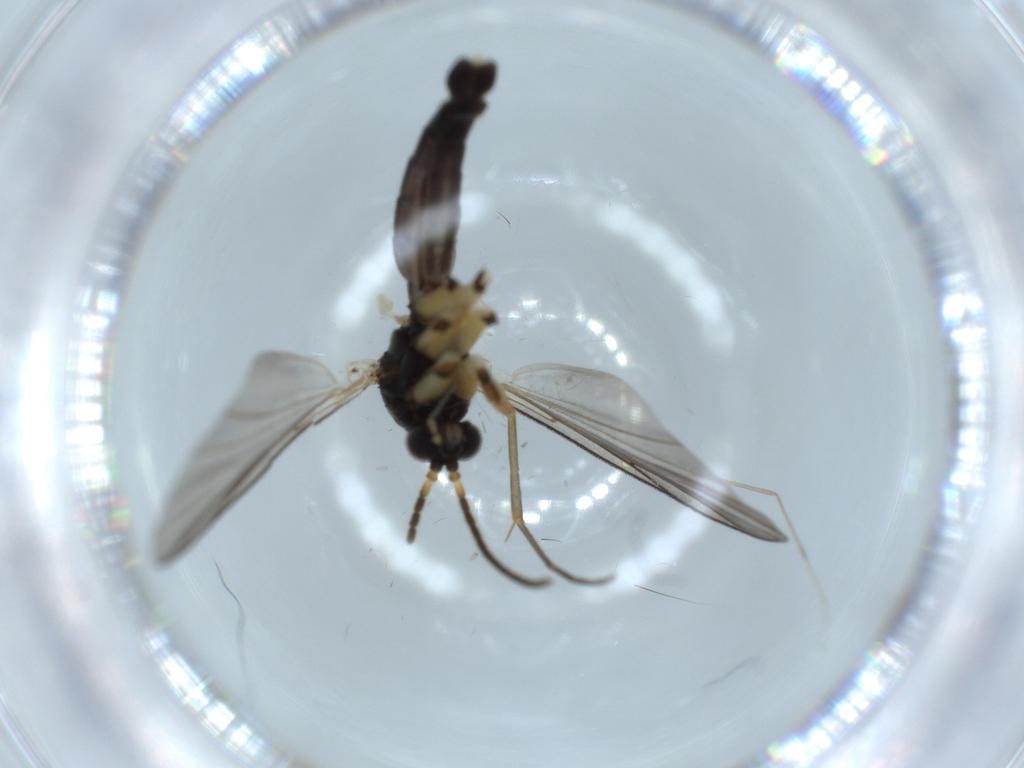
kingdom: Animalia
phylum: Arthropoda
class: Insecta
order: Diptera
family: Mycetophilidae
